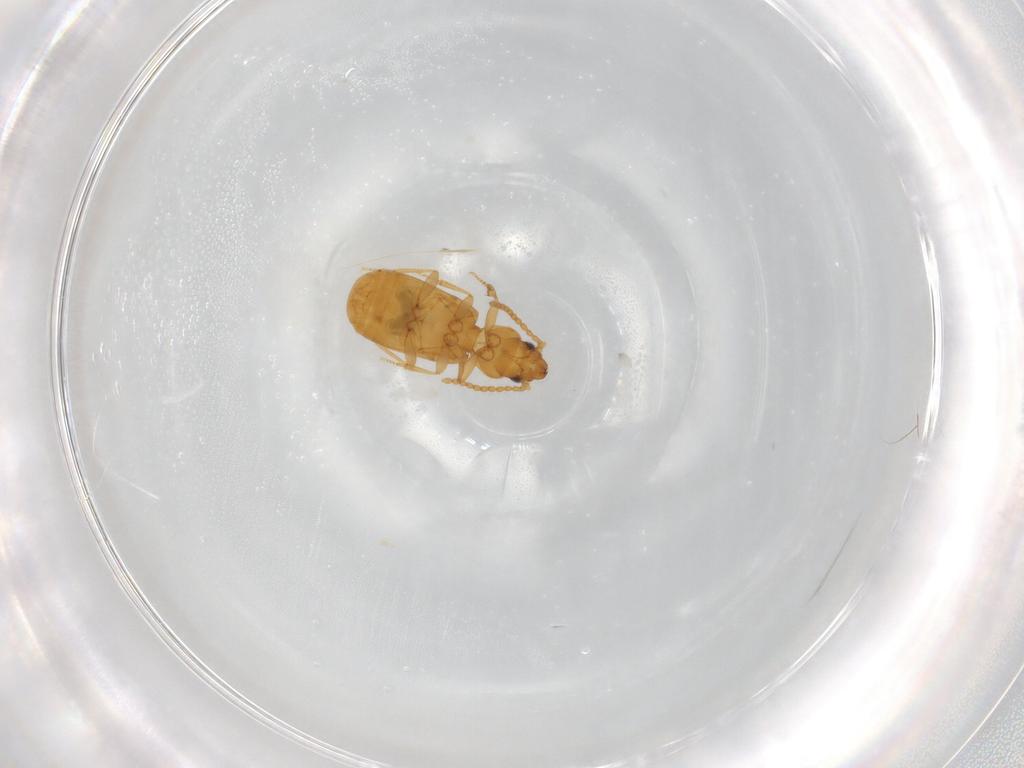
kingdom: Animalia
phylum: Arthropoda
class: Insecta
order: Coleoptera
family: Carabidae
